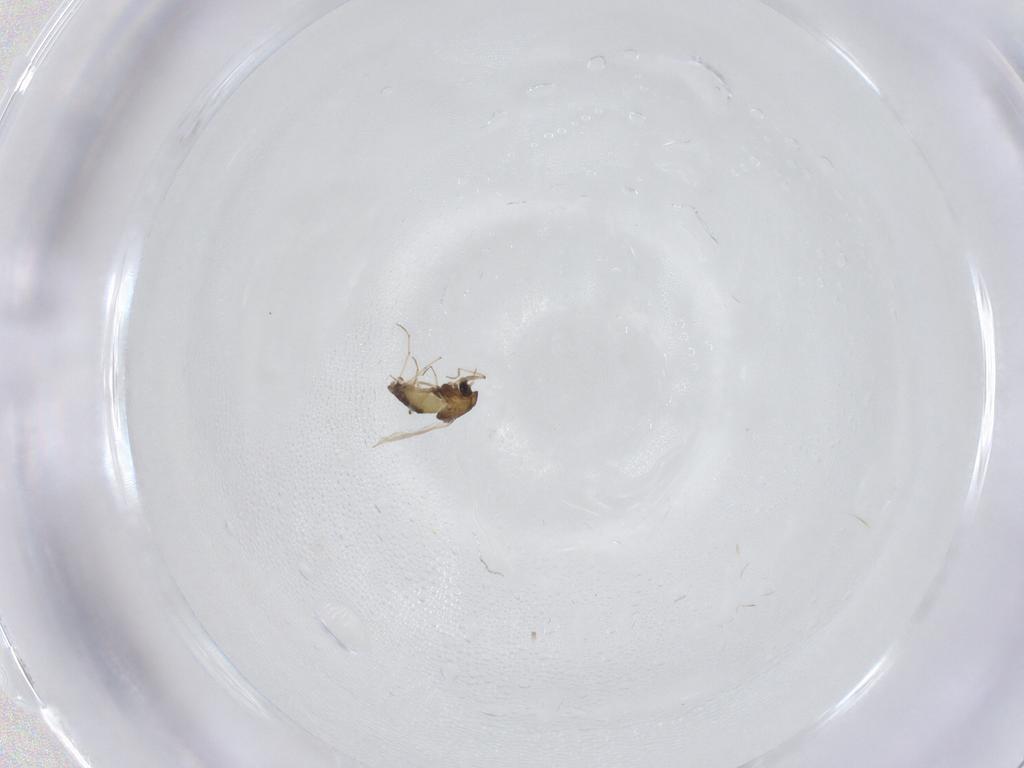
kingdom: Animalia
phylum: Arthropoda
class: Insecta
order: Diptera
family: Chironomidae
